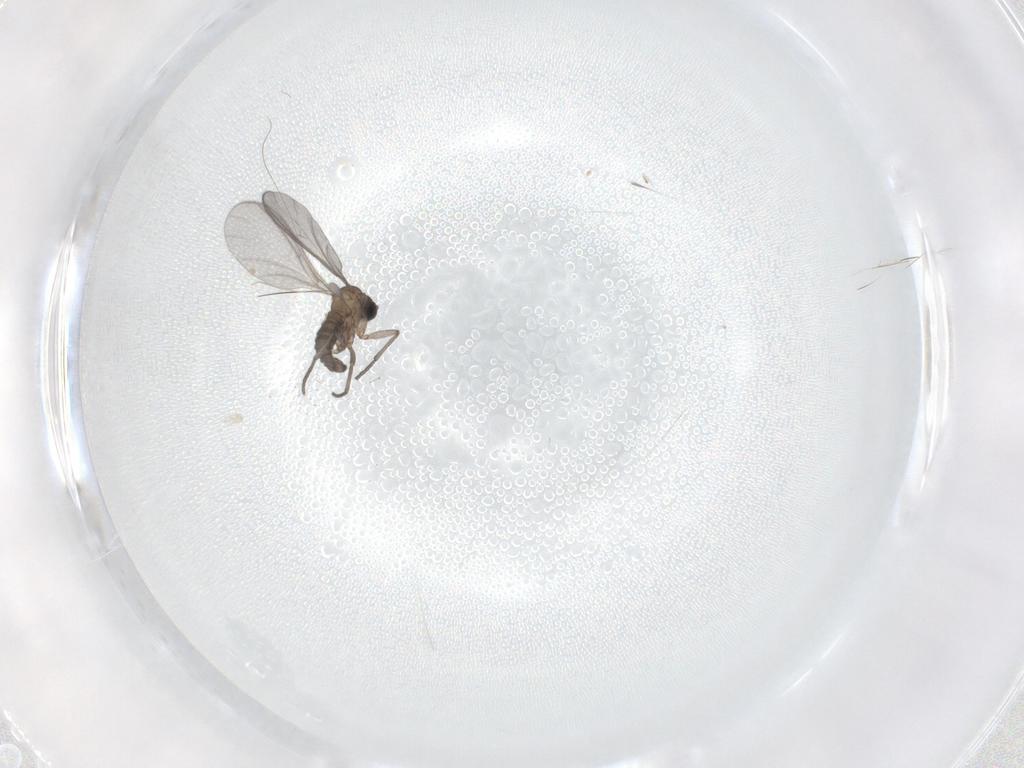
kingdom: Animalia
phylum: Arthropoda
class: Insecta
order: Diptera
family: Sciaridae
